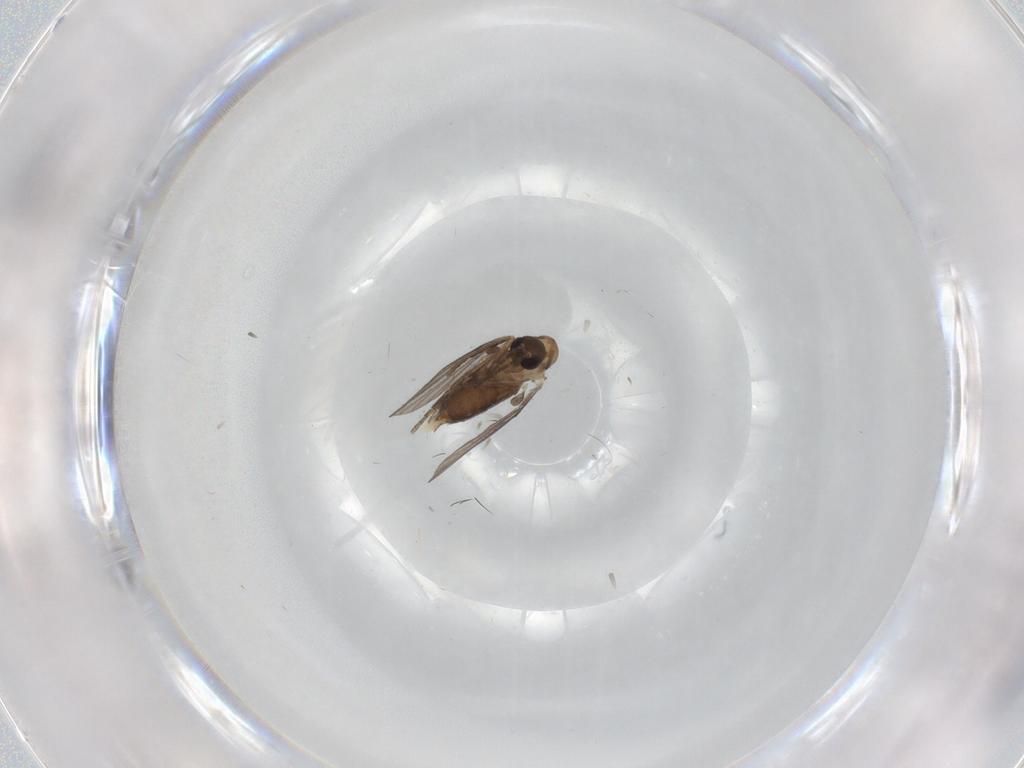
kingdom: Animalia
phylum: Arthropoda
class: Insecta
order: Diptera
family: Phoridae
